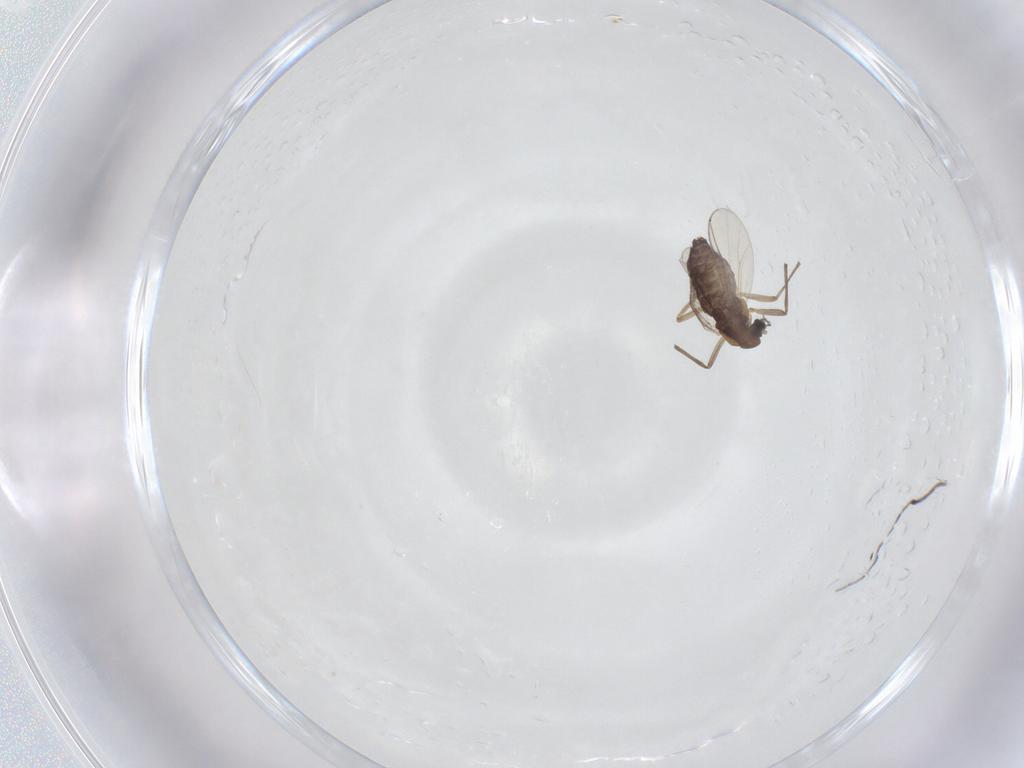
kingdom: Animalia
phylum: Arthropoda
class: Insecta
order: Diptera
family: Chironomidae
